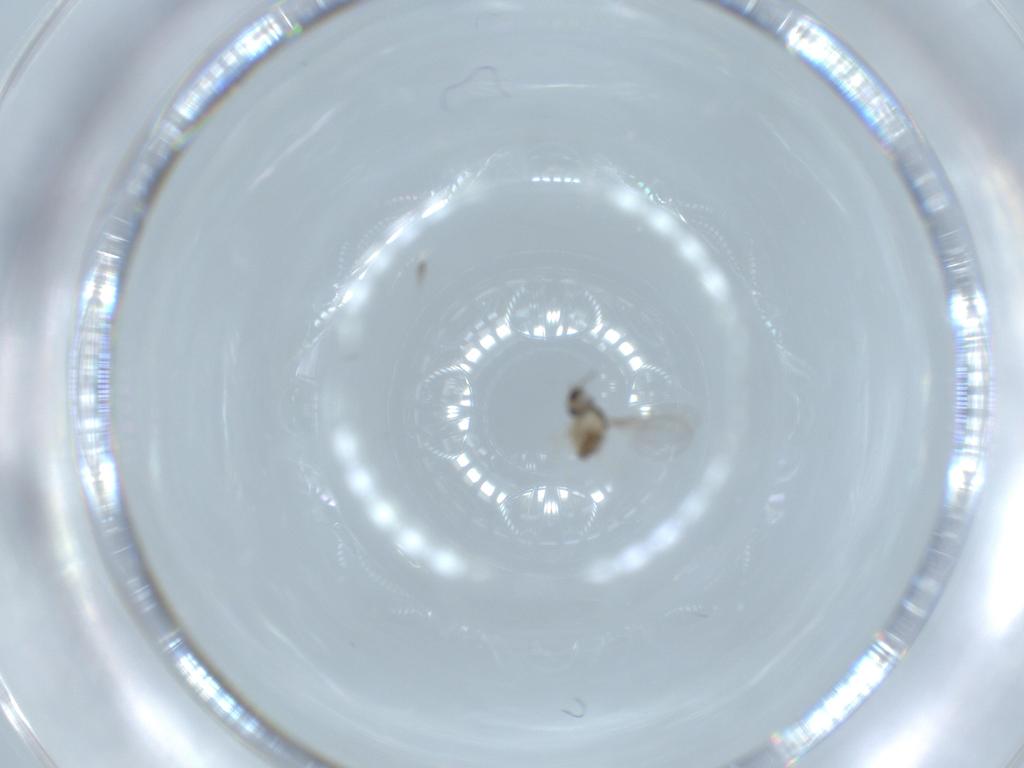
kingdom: Animalia
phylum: Arthropoda
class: Insecta
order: Diptera
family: Cecidomyiidae
